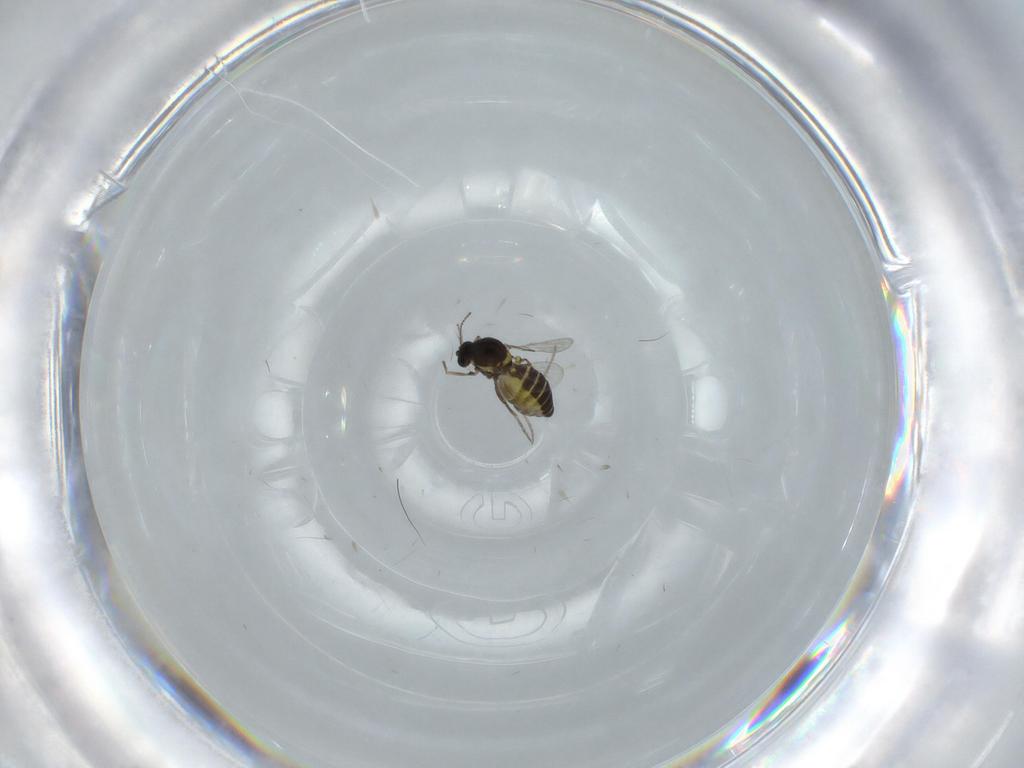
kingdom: Animalia
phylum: Arthropoda
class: Insecta
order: Diptera
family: Ceratopogonidae
